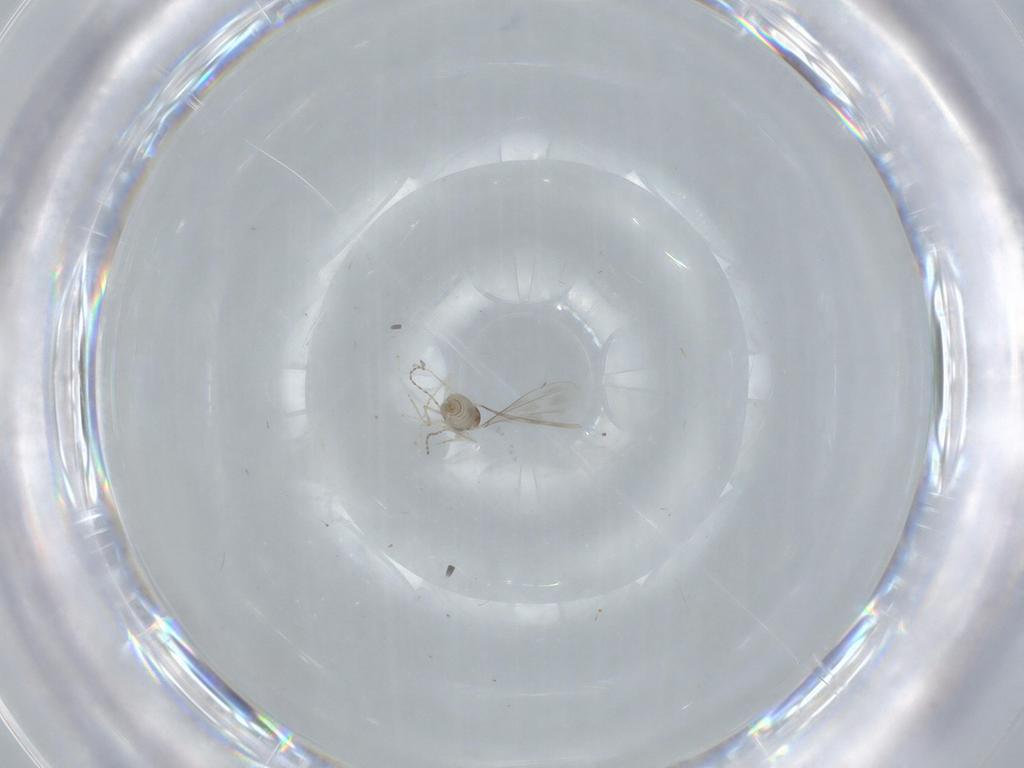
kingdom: Animalia
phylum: Arthropoda
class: Insecta
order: Diptera
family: Cecidomyiidae
